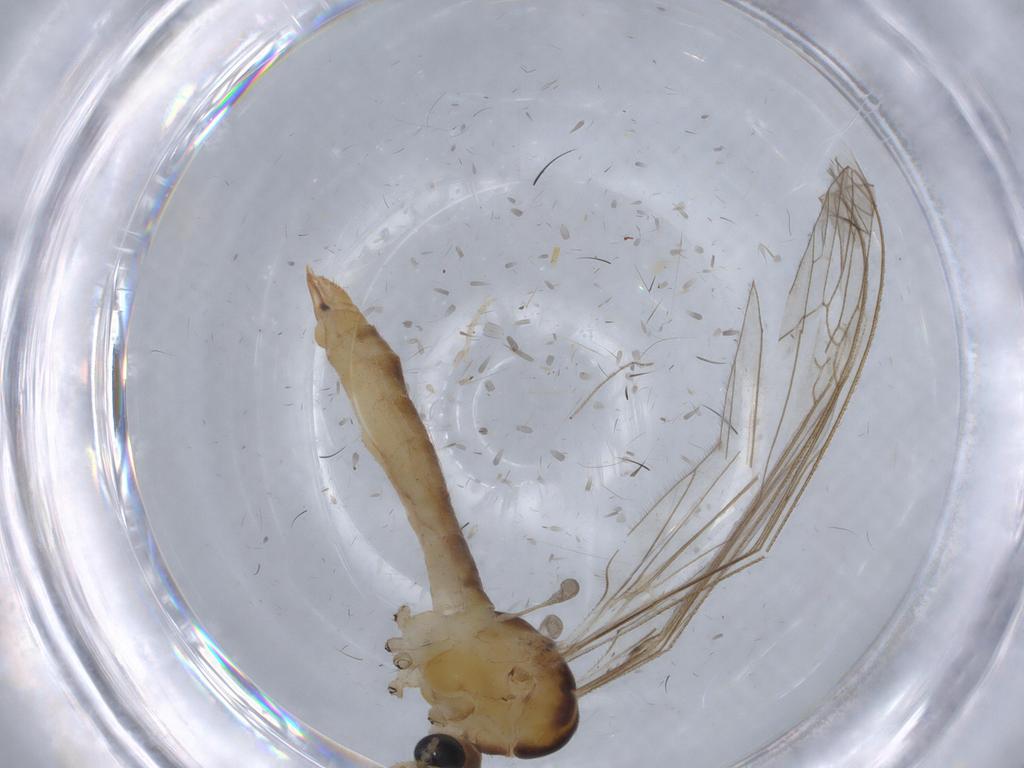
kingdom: Animalia
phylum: Arthropoda
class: Insecta
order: Diptera
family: Limoniidae
